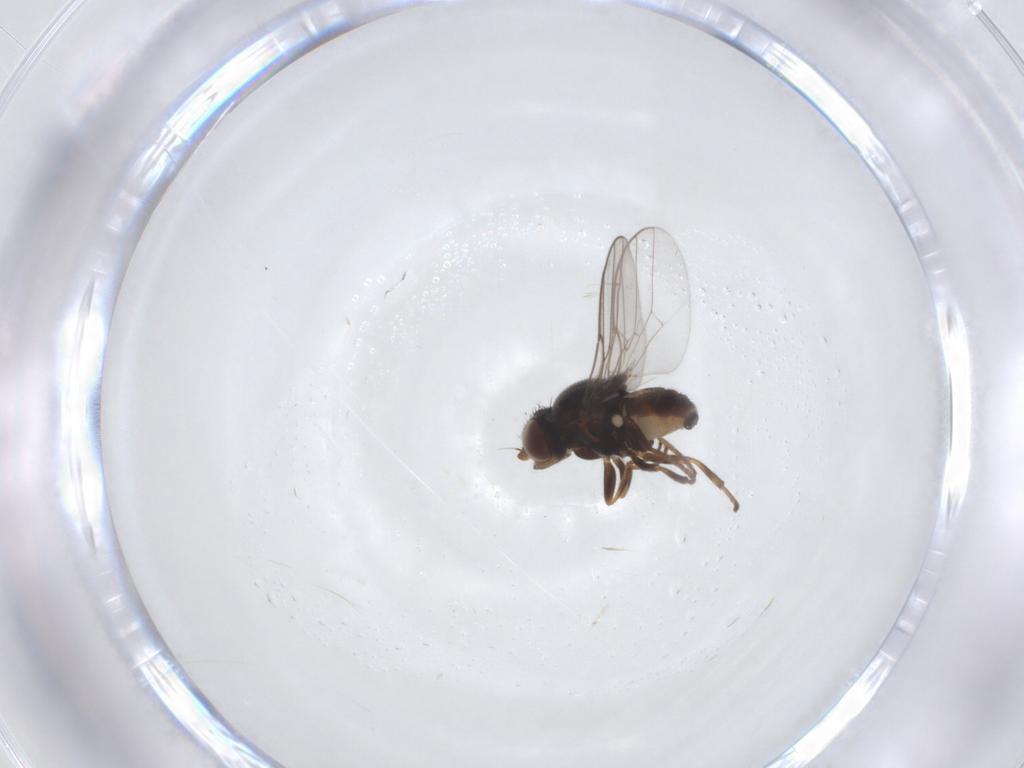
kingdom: Animalia
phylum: Arthropoda
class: Insecta
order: Diptera
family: Chloropidae
